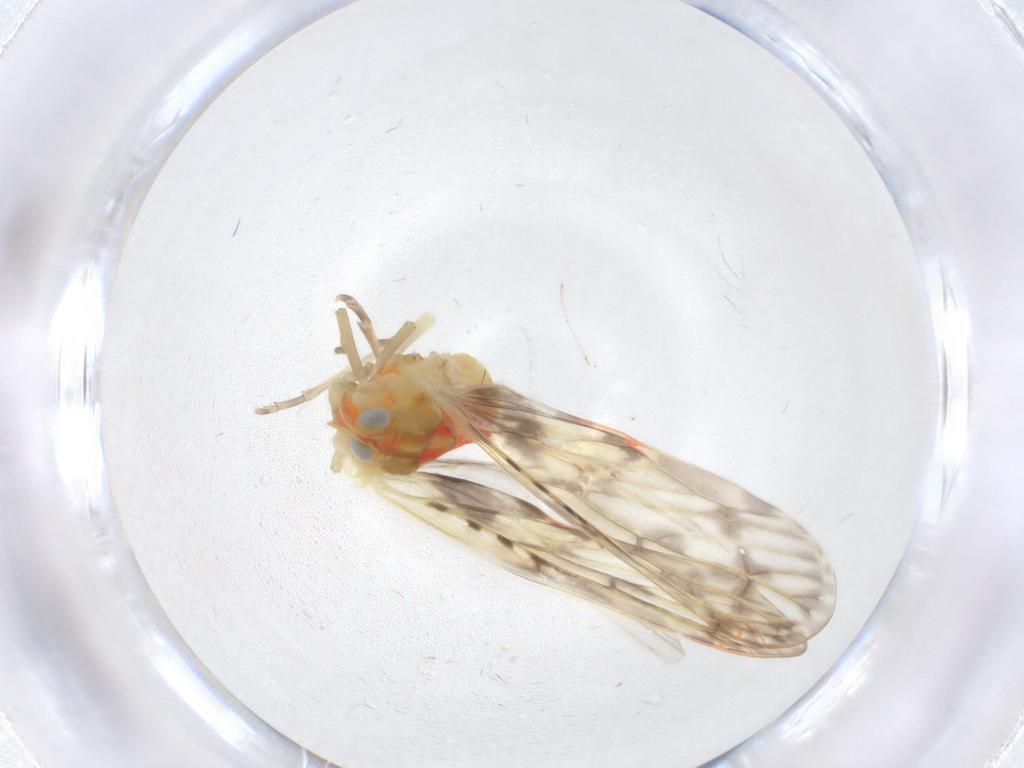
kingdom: Animalia
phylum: Arthropoda
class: Insecta
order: Hemiptera
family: Derbidae
